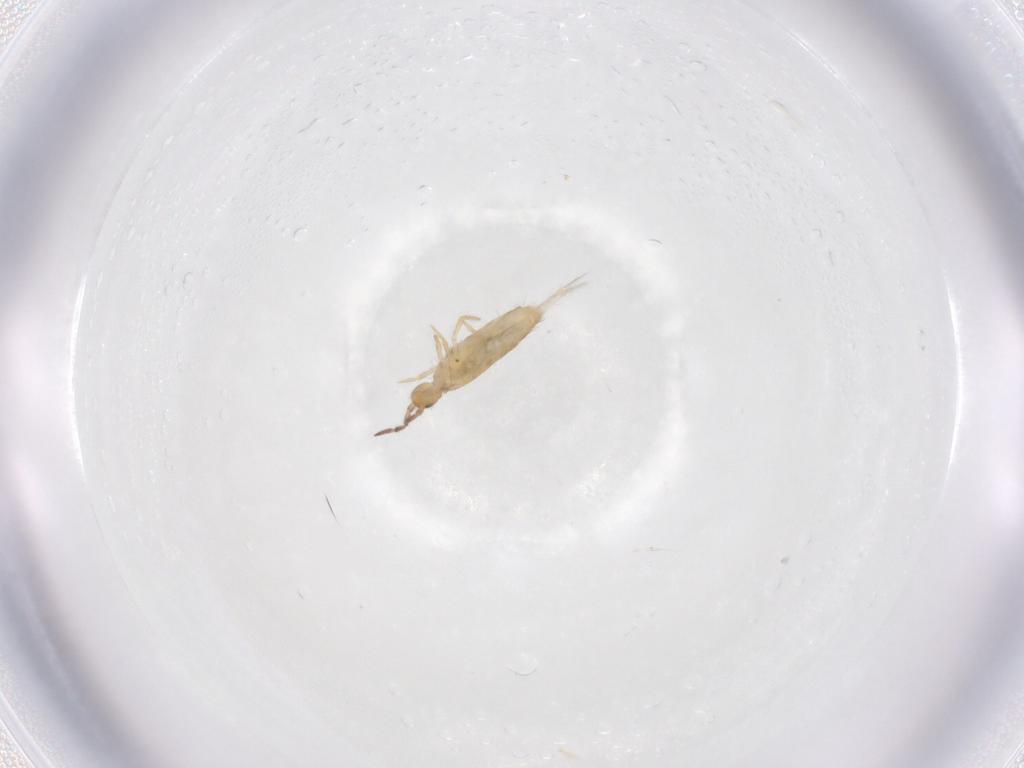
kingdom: Animalia
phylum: Arthropoda
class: Collembola
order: Entomobryomorpha
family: Entomobryidae
